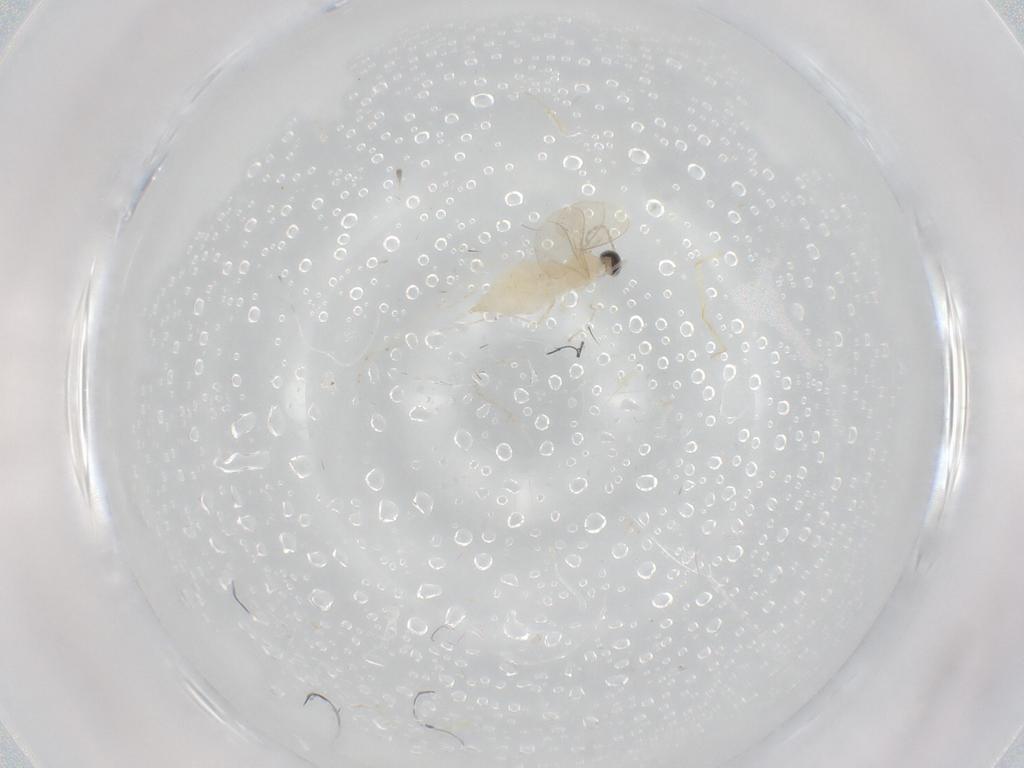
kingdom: Animalia
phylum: Arthropoda
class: Insecta
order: Diptera
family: Cecidomyiidae
